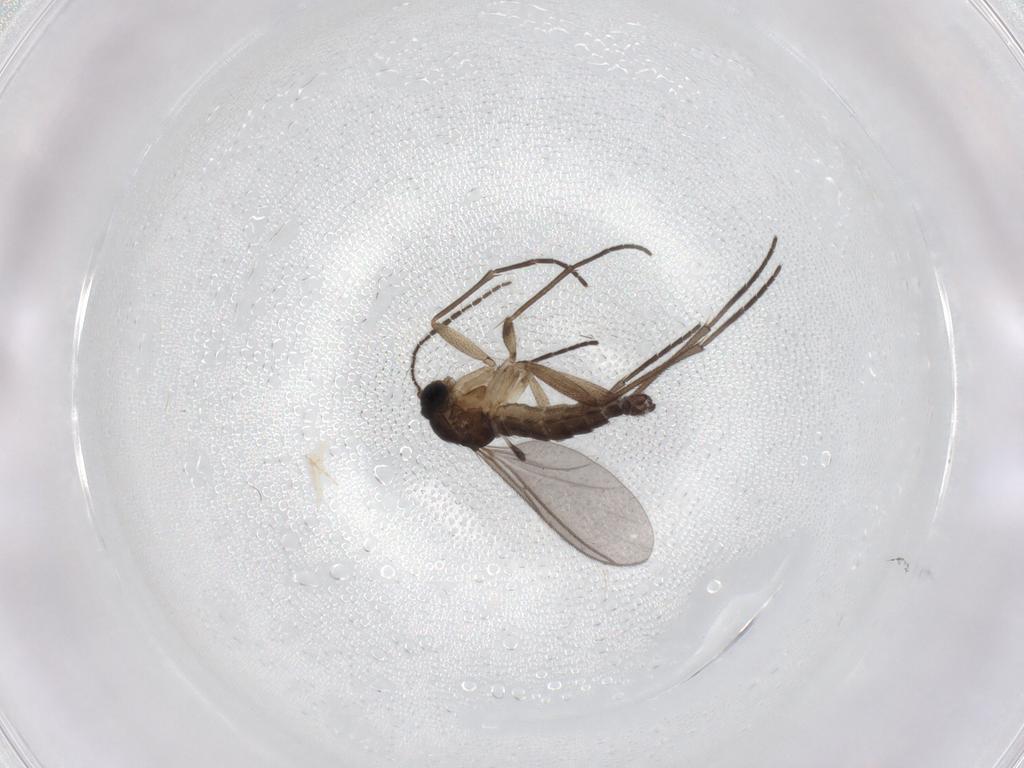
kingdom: Animalia
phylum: Arthropoda
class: Insecta
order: Diptera
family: Sciaridae
